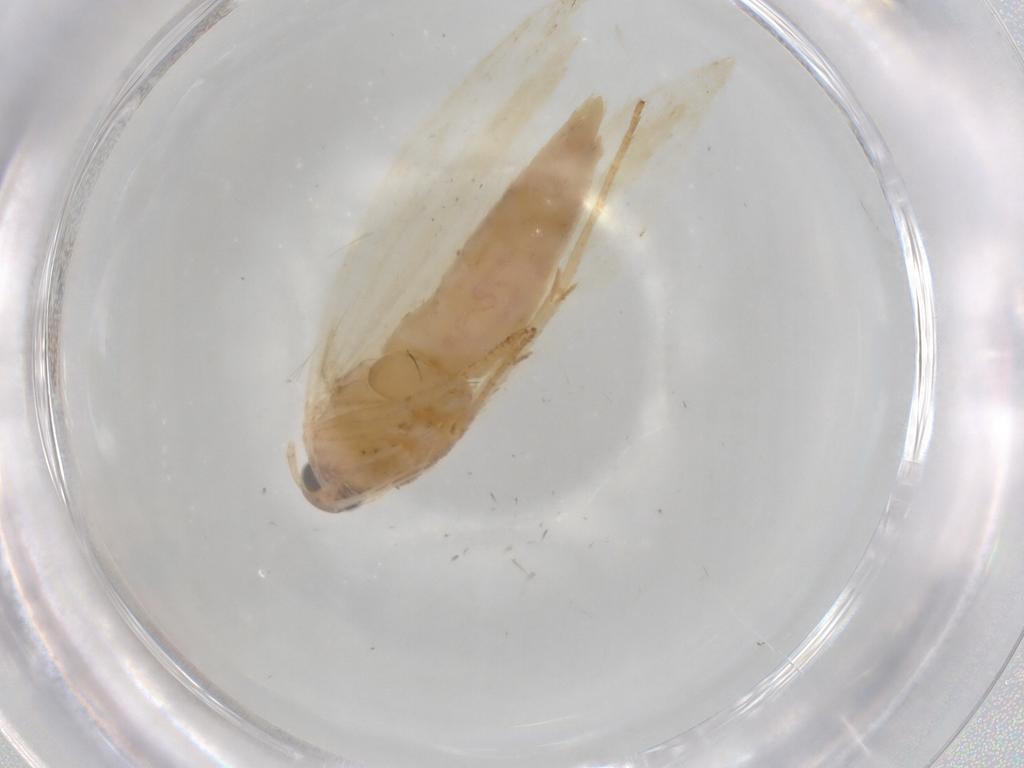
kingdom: Animalia
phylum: Arthropoda
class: Insecta
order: Lepidoptera
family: Gelechiidae
